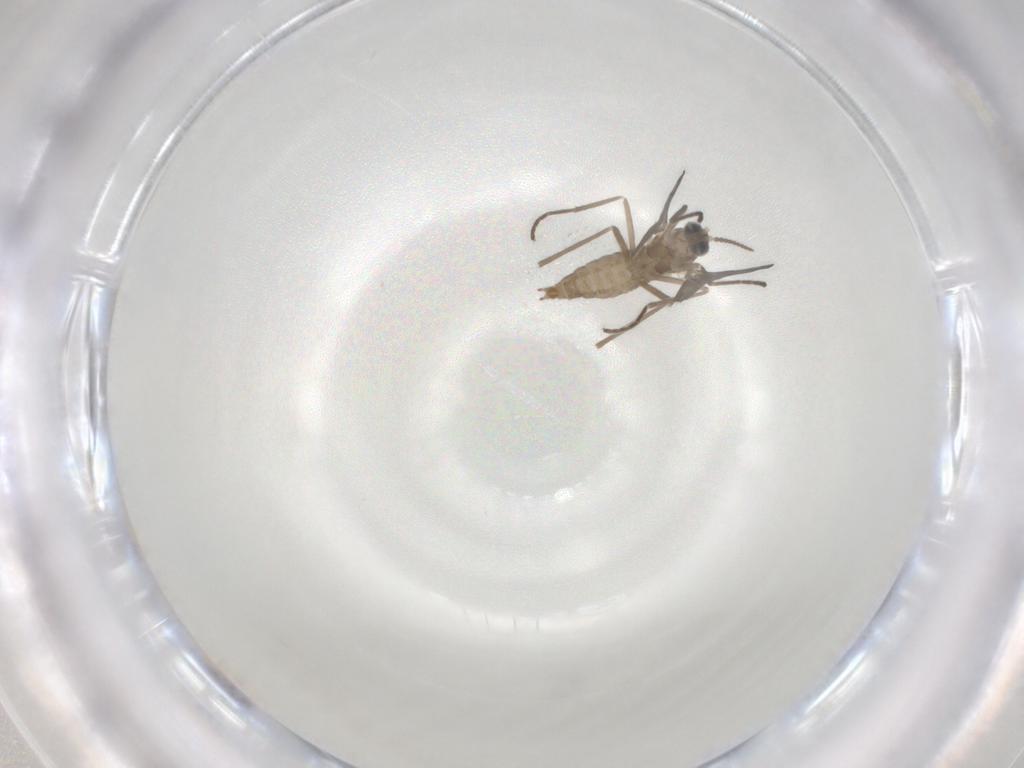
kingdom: Animalia
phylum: Arthropoda
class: Insecta
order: Diptera
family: Cecidomyiidae
